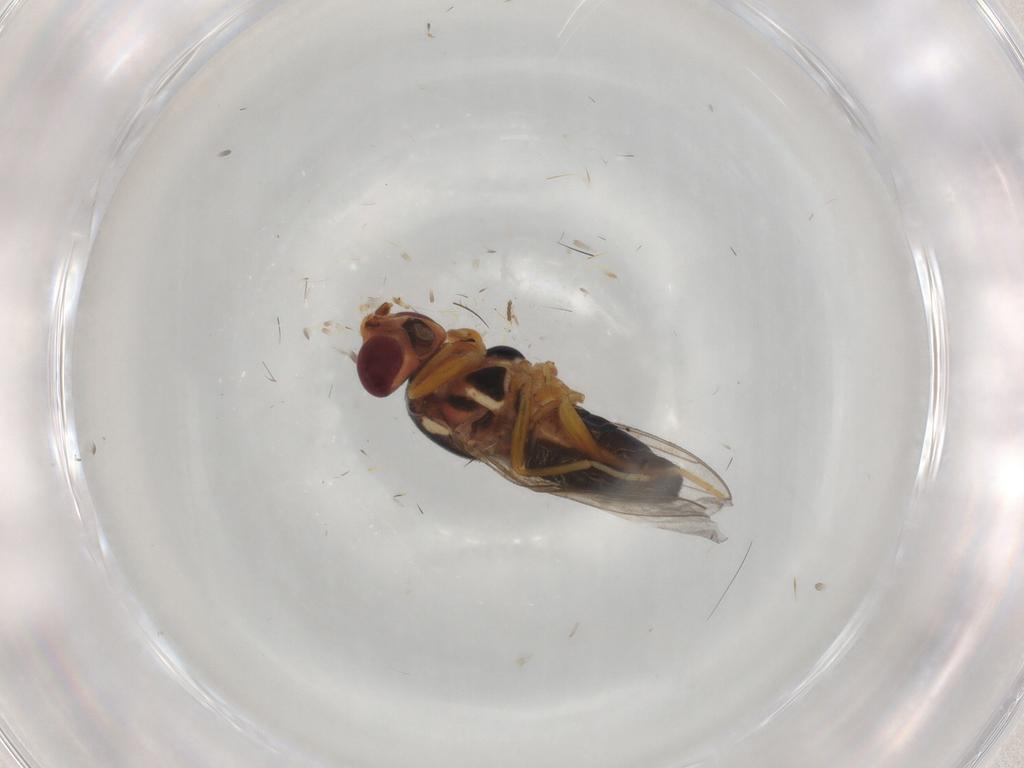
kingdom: Animalia
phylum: Arthropoda
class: Insecta
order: Diptera
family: Chloropidae
